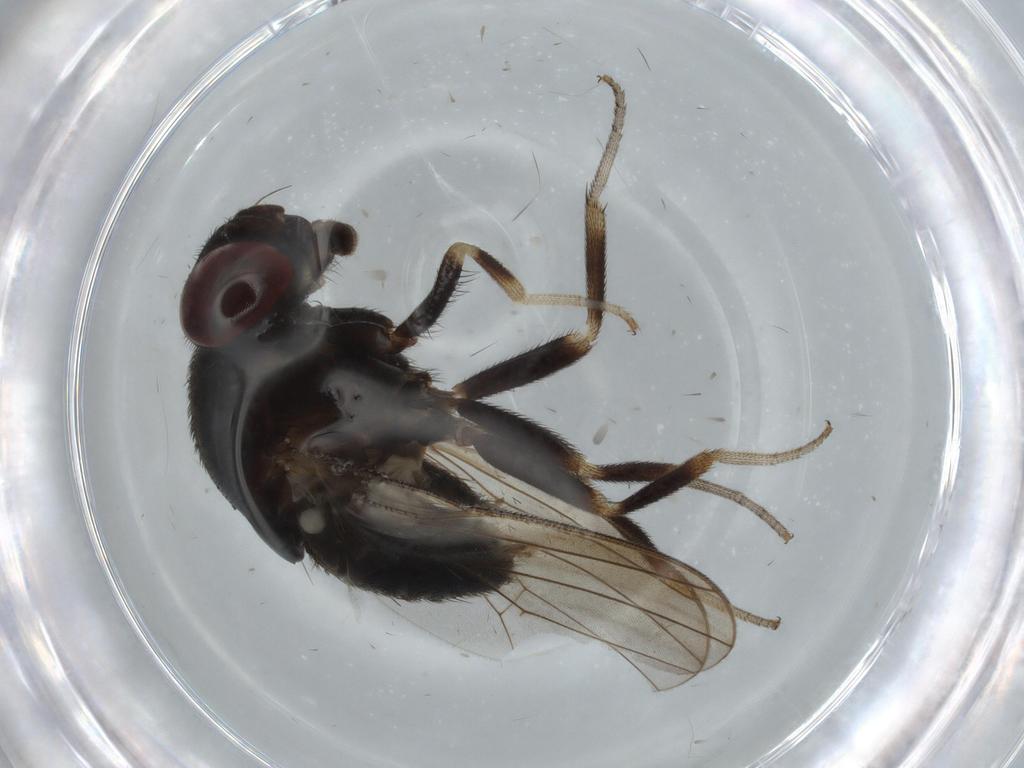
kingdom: Animalia
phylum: Arthropoda
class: Insecta
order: Diptera
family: Ephydridae
